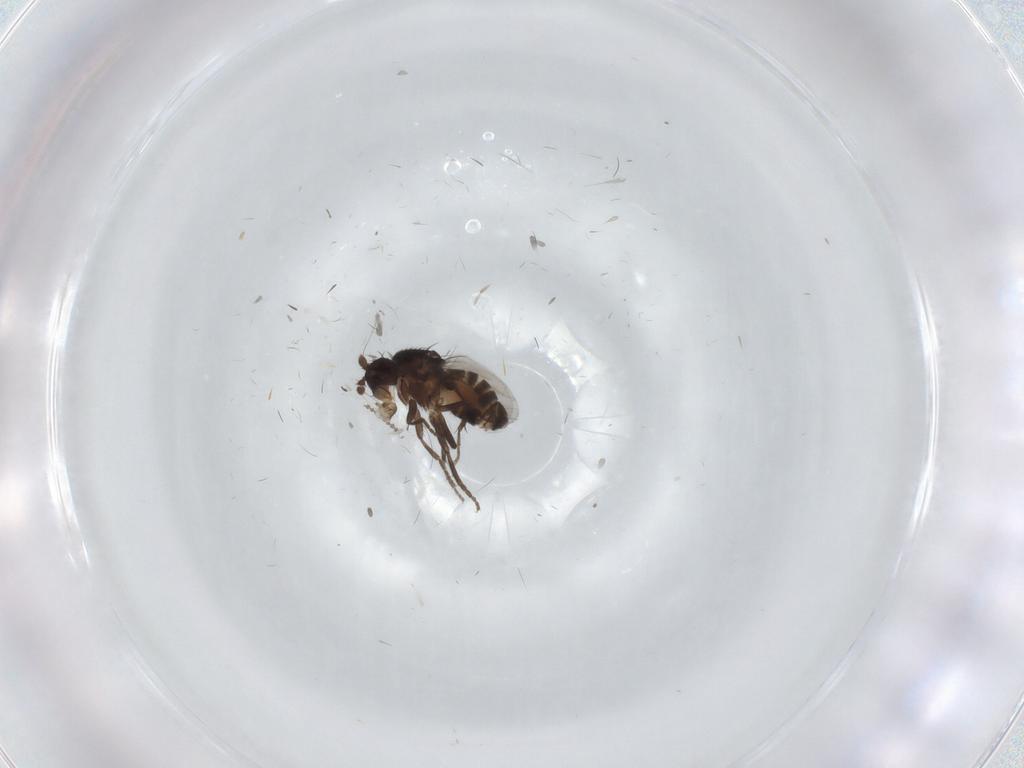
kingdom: Animalia
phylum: Arthropoda
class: Insecta
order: Diptera
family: Sphaeroceridae
